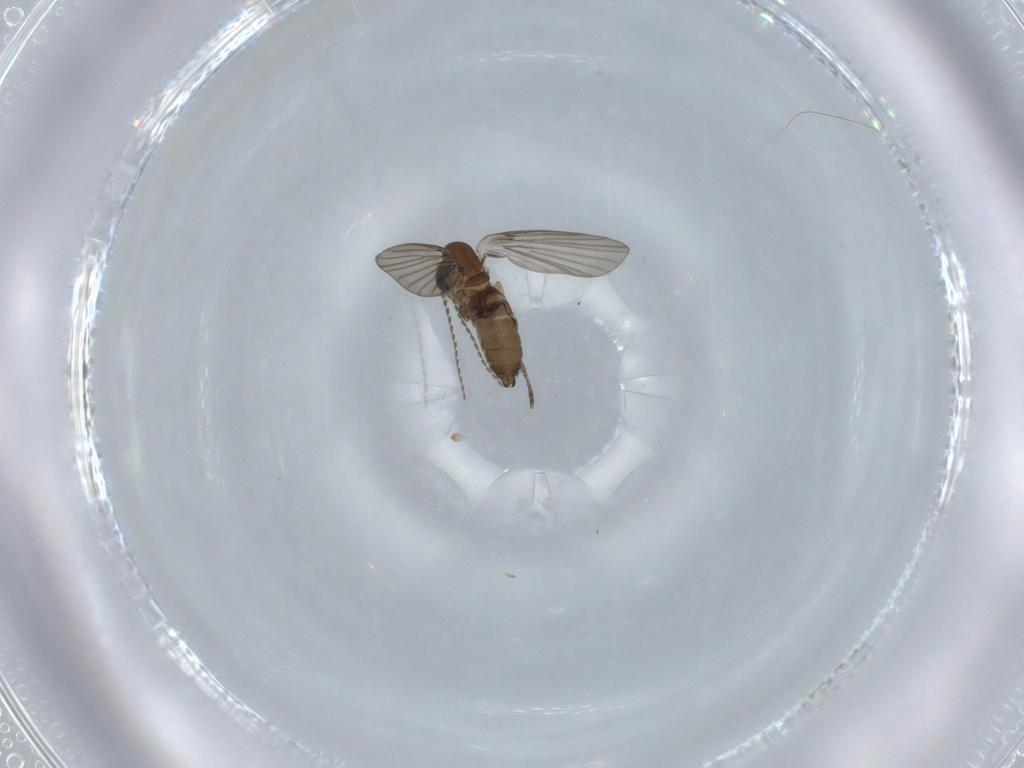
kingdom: Animalia
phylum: Arthropoda
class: Insecta
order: Diptera
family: Psychodidae
